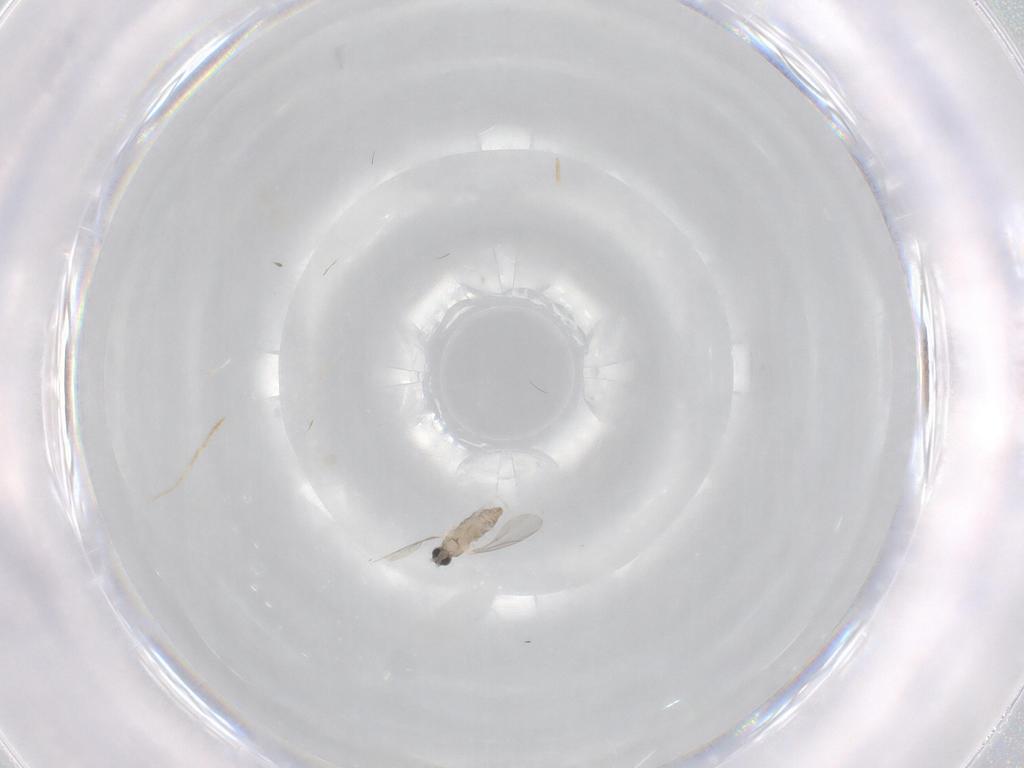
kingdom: Animalia
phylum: Arthropoda
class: Insecta
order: Diptera
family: Cecidomyiidae
